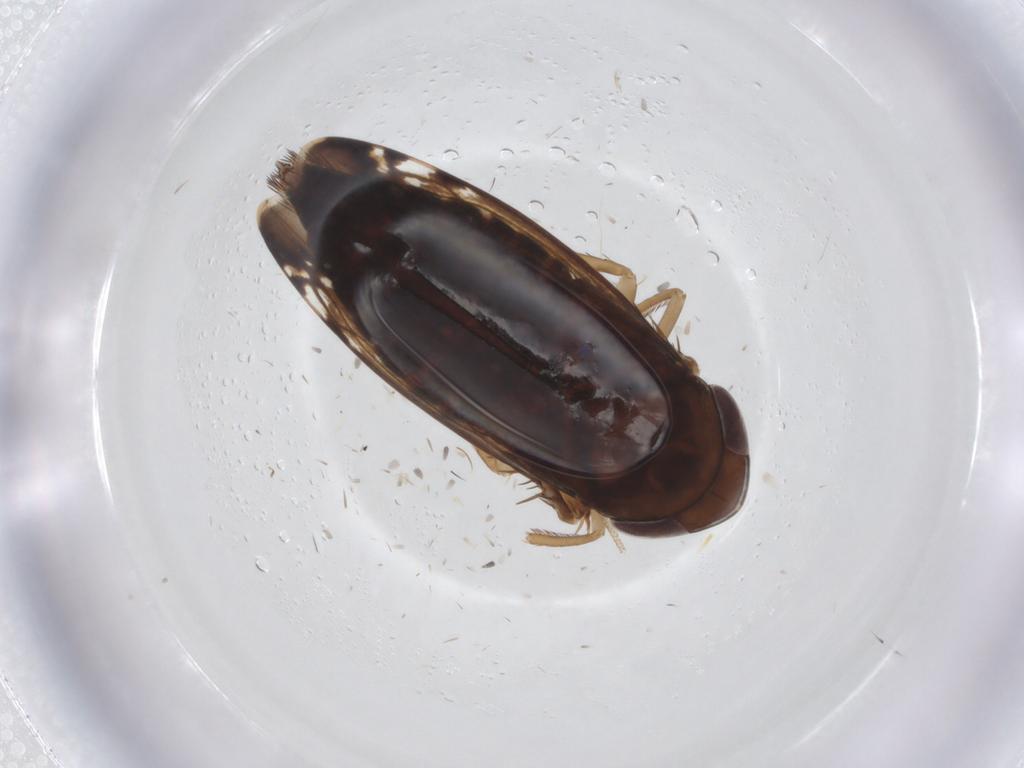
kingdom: Animalia
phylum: Arthropoda
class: Insecta
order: Hemiptera
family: Cicadellidae
